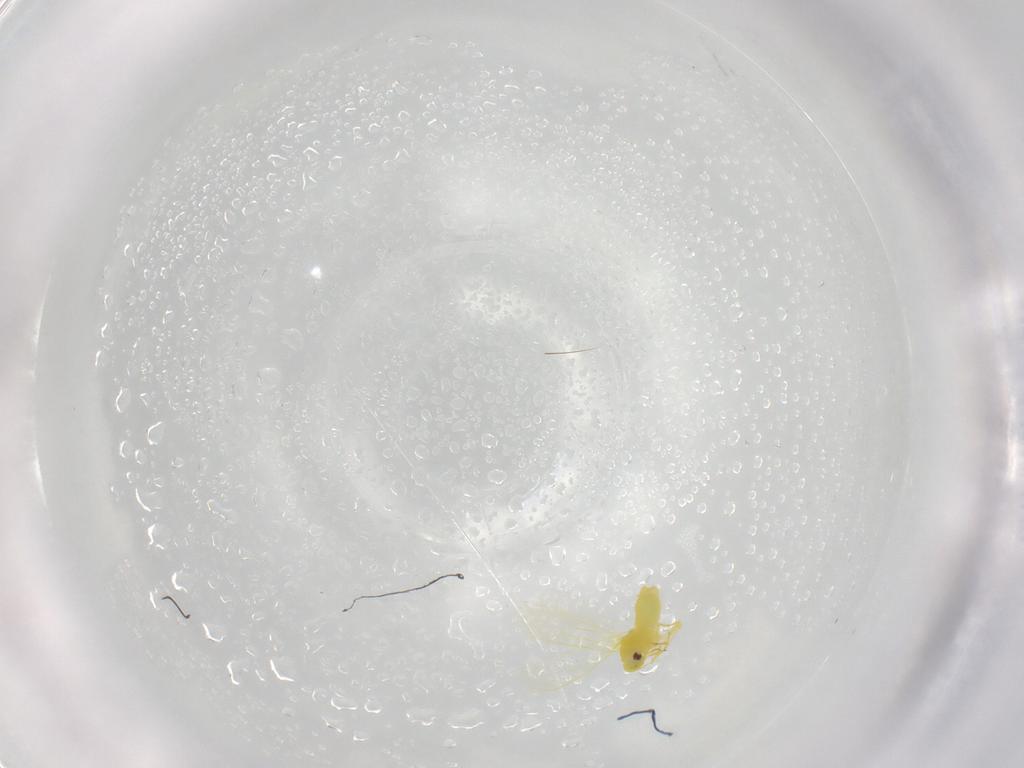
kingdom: Animalia
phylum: Arthropoda
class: Insecta
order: Hemiptera
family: Aleyrodidae
